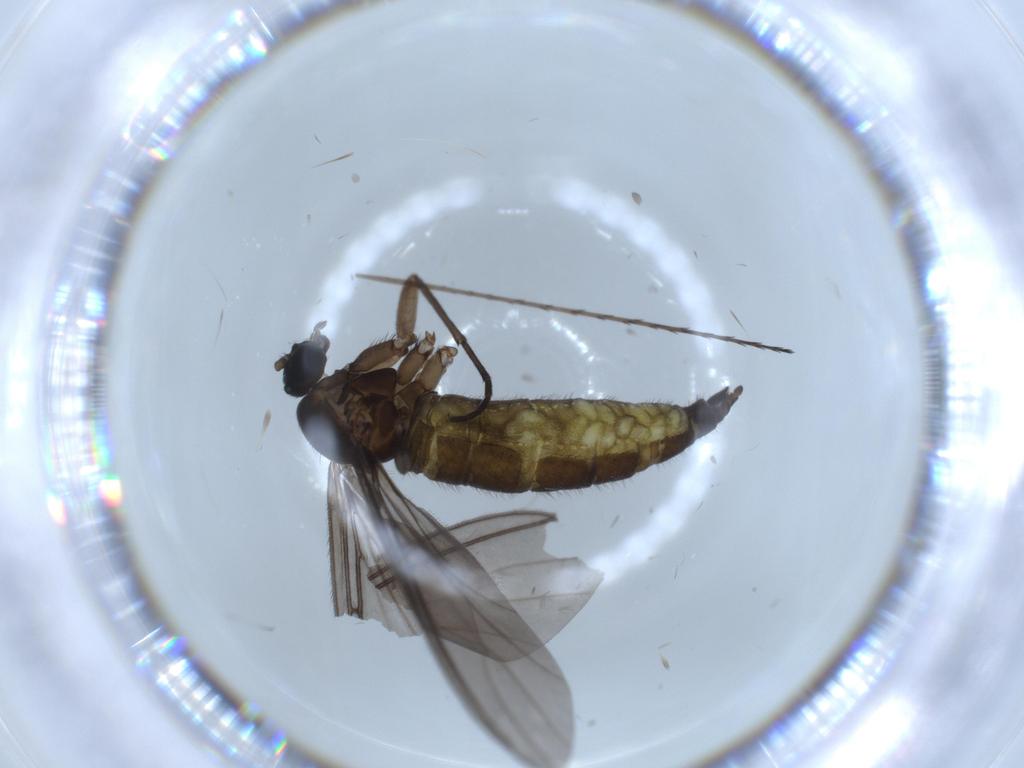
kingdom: Animalia
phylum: Arthropoda
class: Insecta
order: Diptera
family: Sciaridae
